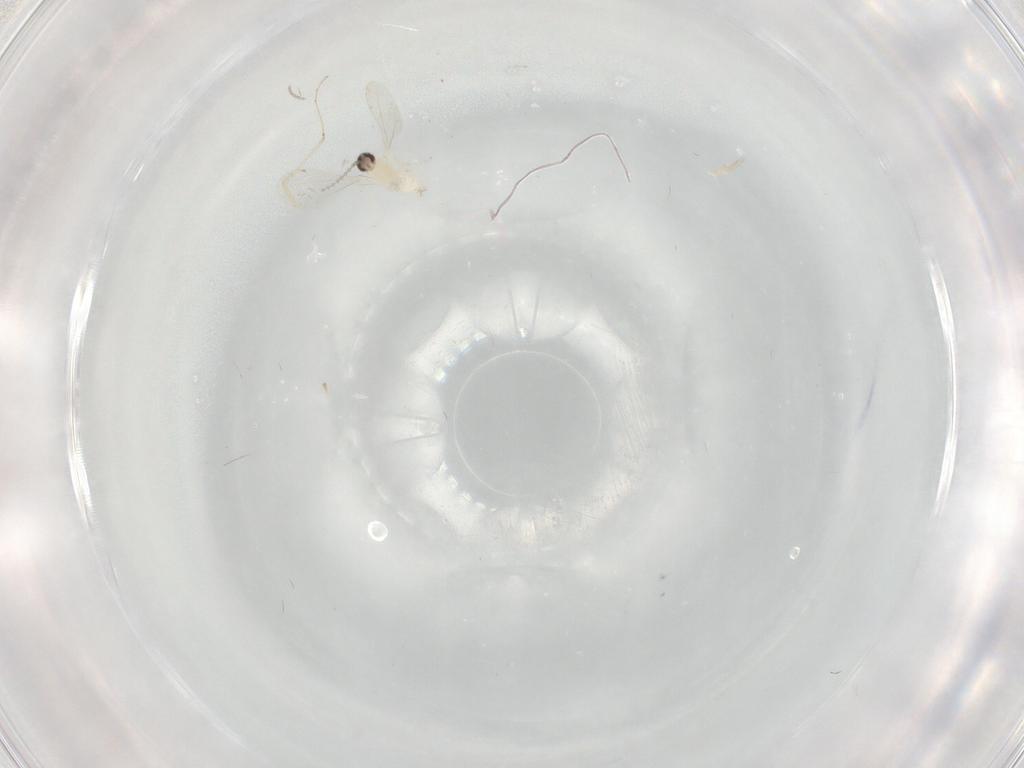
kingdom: Animalia
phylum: Arthropoda
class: Insecta
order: Diptera
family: Cecidomyiidae
